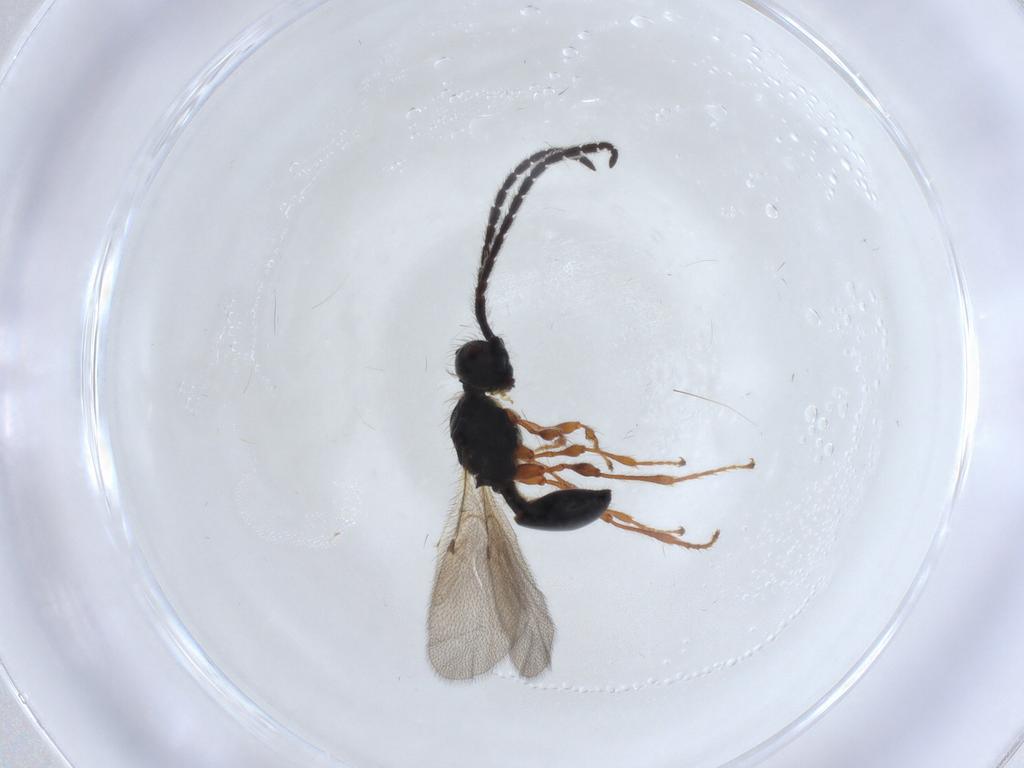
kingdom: Animalia
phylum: Arthropoda
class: Insecta
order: Hymenoptera
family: Diapriidae
